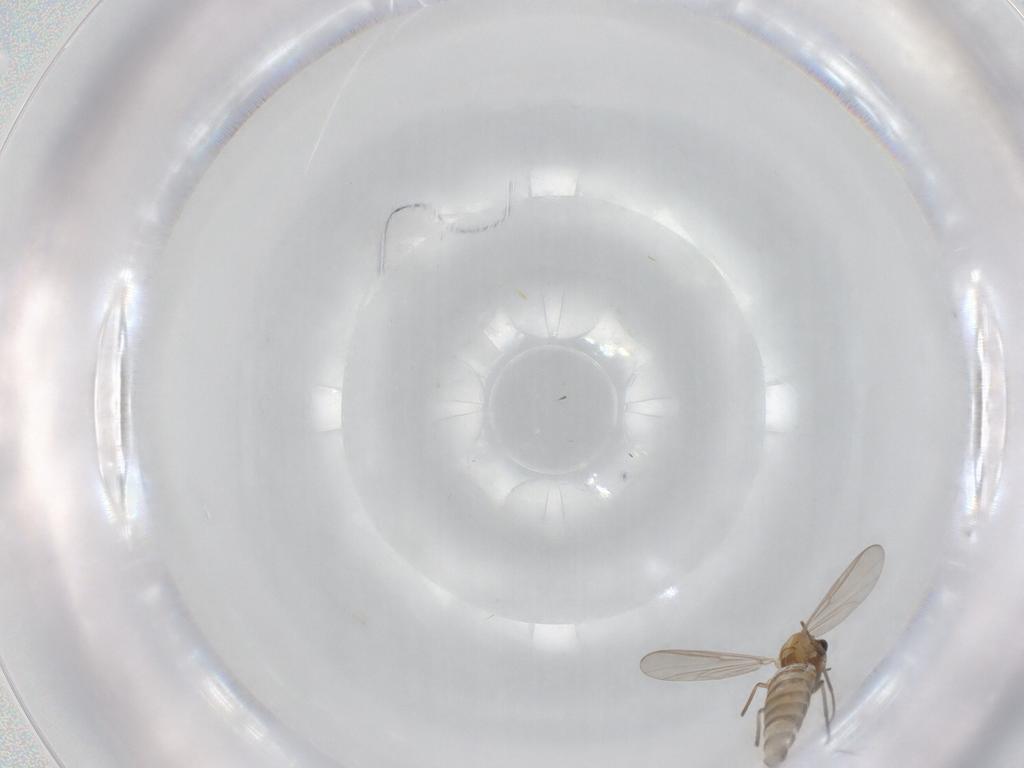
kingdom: Animalia
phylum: Arthropoda
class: Insecta
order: Diptera
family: Chironomidae
